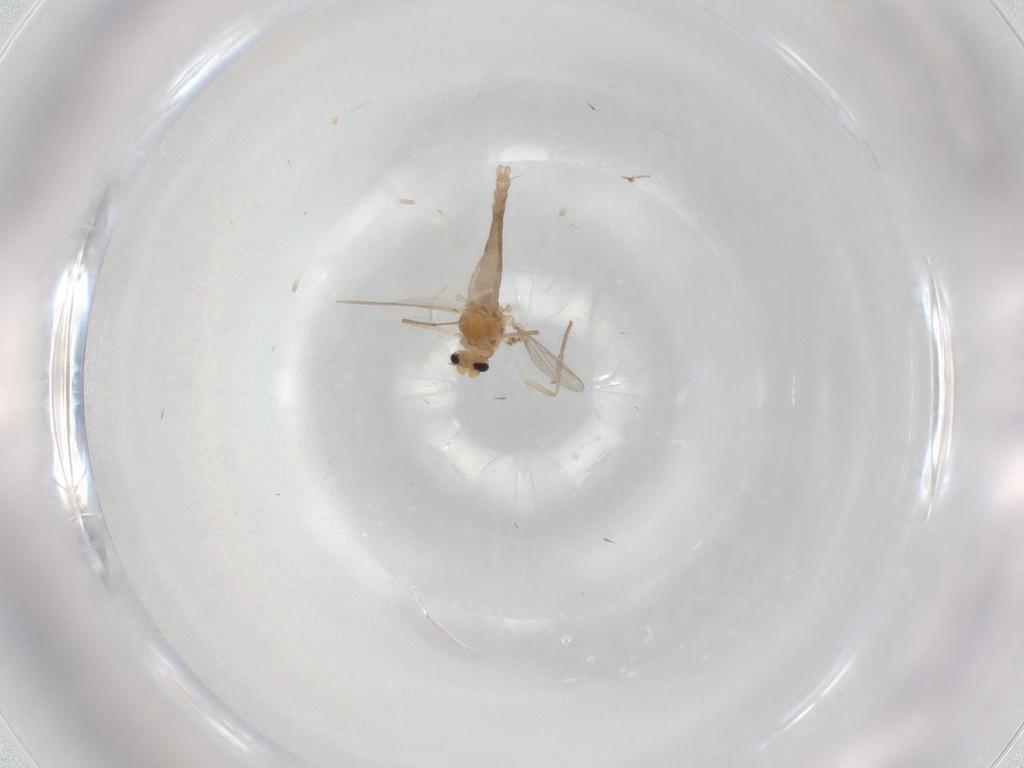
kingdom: Animalia
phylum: Arthropoda
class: Insecta
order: Diptera
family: Chironomidae
